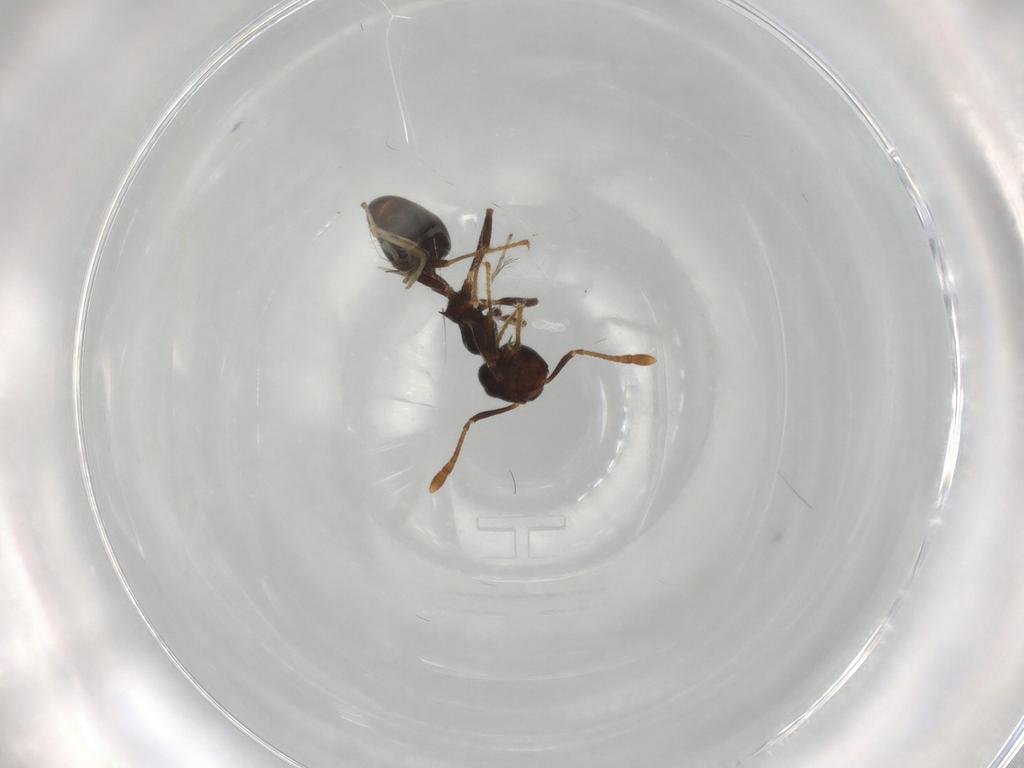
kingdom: Animalia
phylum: Arthropoda
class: Insecta
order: Hymenoptera
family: Formicidae
